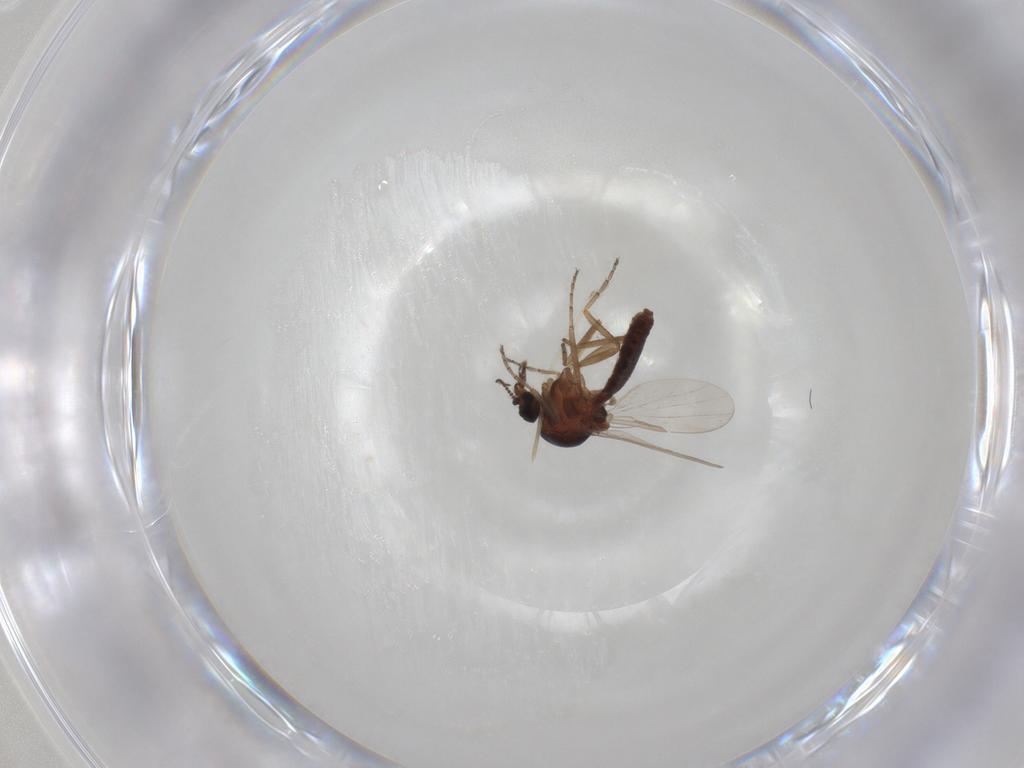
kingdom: Animalia
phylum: Arthropoda
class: Insecta
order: Diptera
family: Ceratopogonidae
